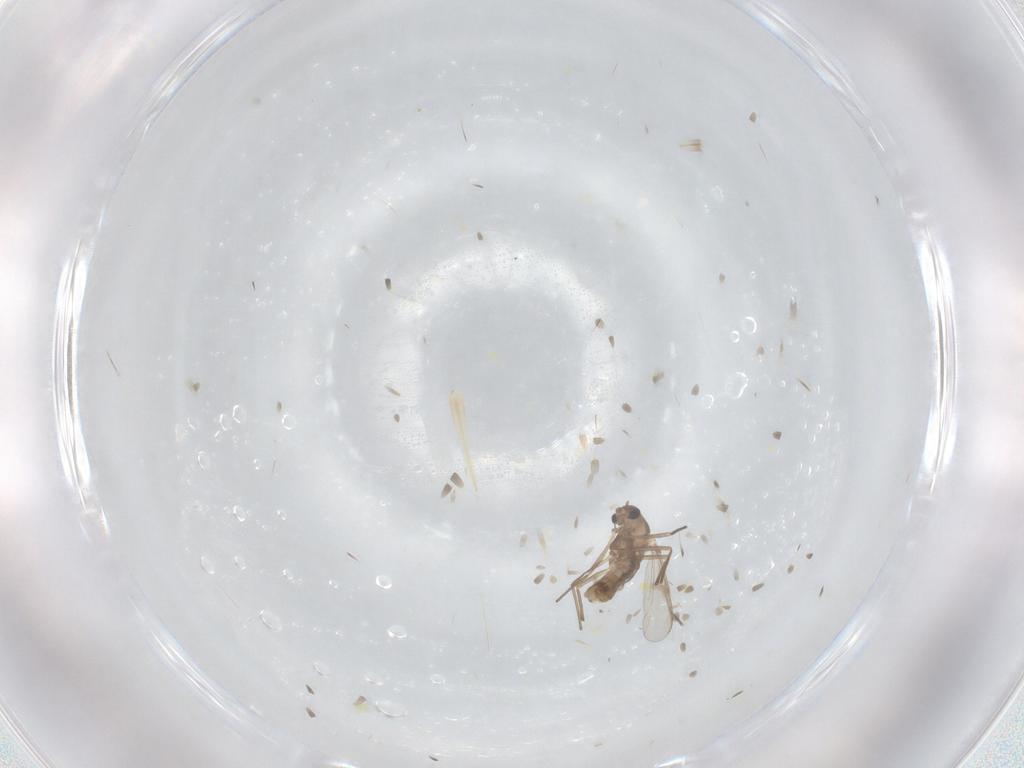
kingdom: Animalia
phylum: Arthropoda
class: Insecta
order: Diptera
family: Chironomidae
